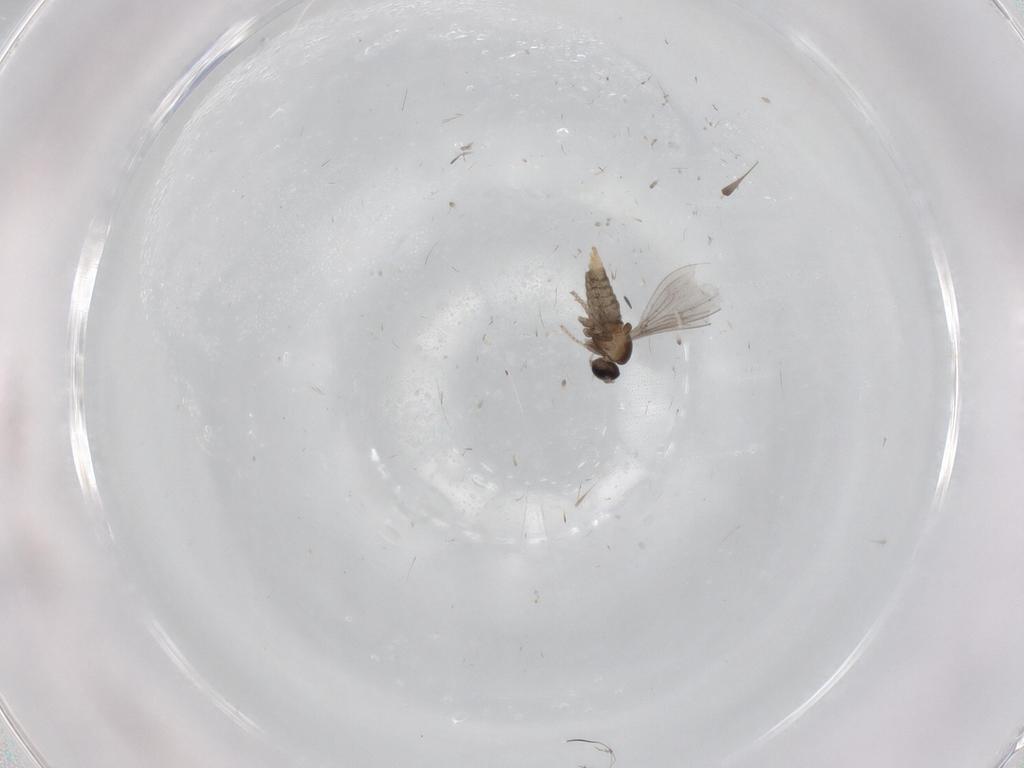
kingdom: Animalia
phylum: Arthropoda
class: Insecta
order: Diptera
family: Cecidomyiidae
